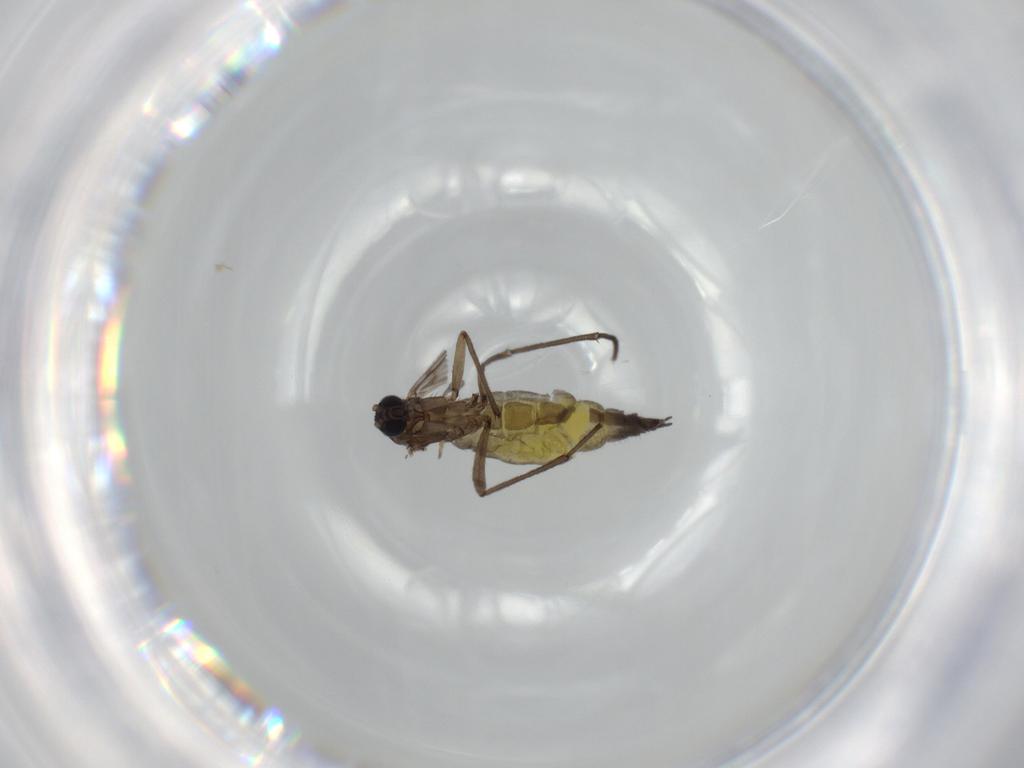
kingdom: Animalia
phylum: Arthropoda
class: Insecta
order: Diptera
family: Sciaridae
